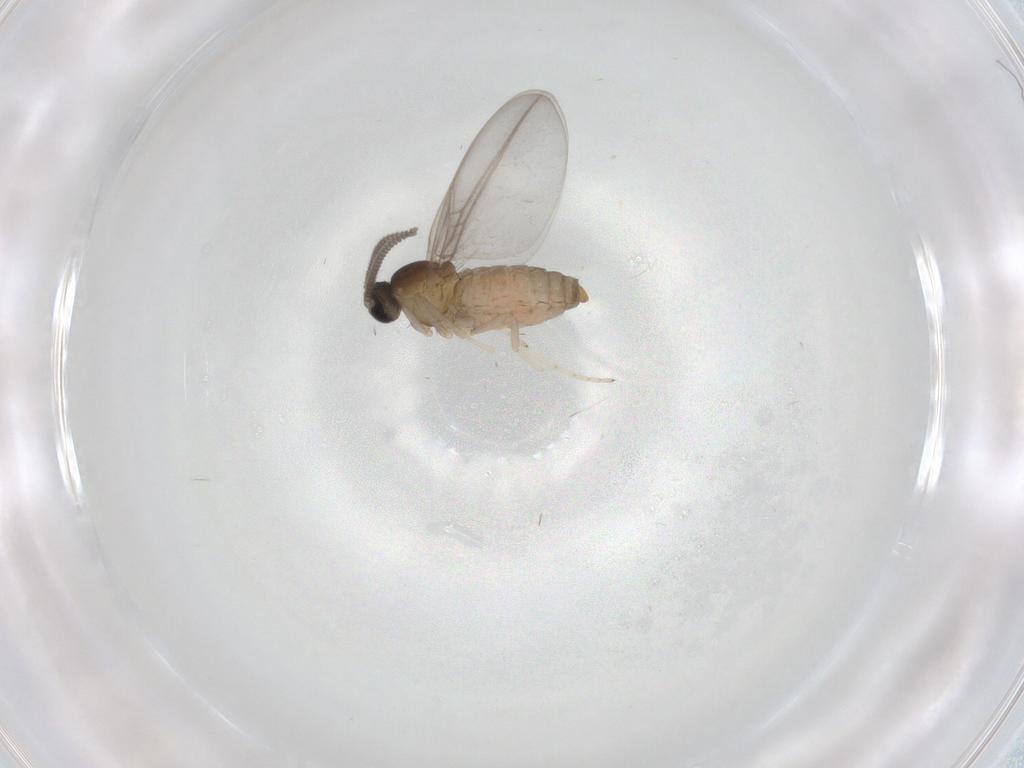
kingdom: Animalia
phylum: Arthropoda
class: Insecta
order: Diptera
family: Cecidomyiidae
